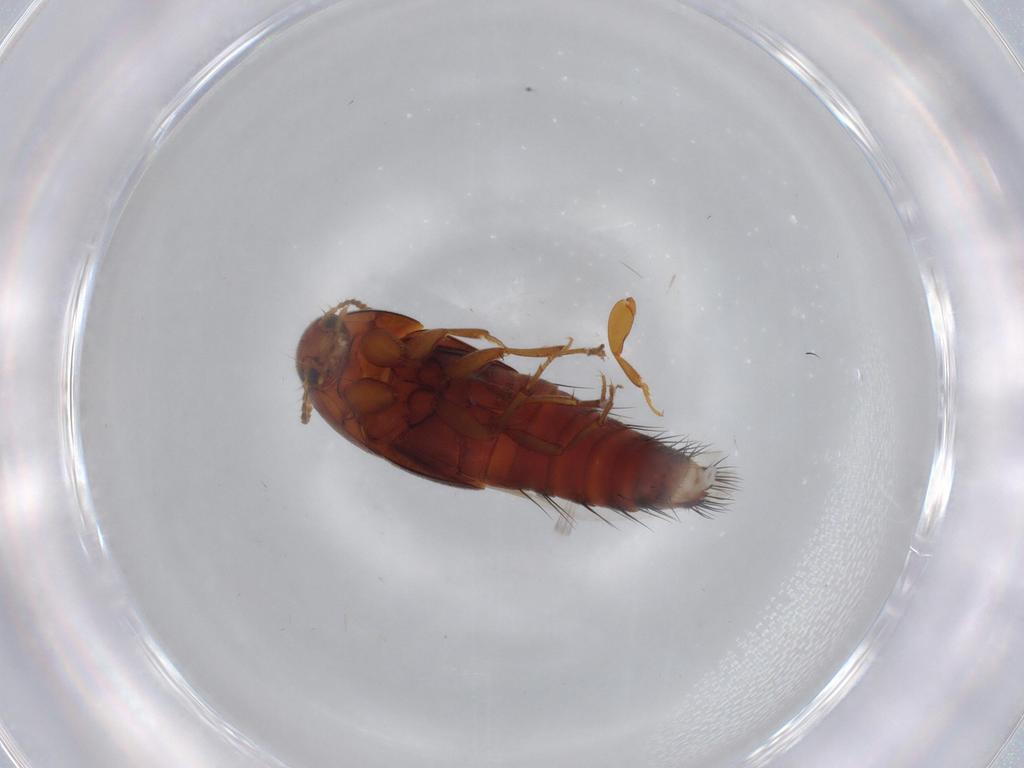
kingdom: Animalia
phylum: Arthropoda
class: Insecta
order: Coleoptera
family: Staphylinidae
